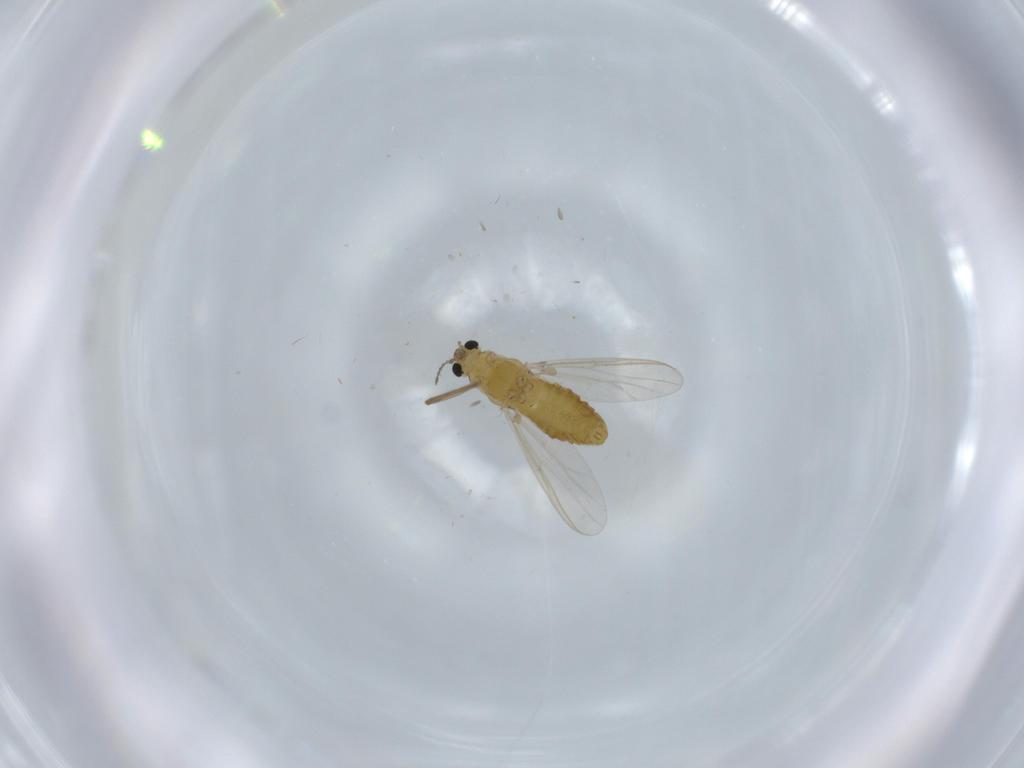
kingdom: Animalia
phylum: Arthropoda
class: Insecta
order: Diptera
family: Chironomidae
